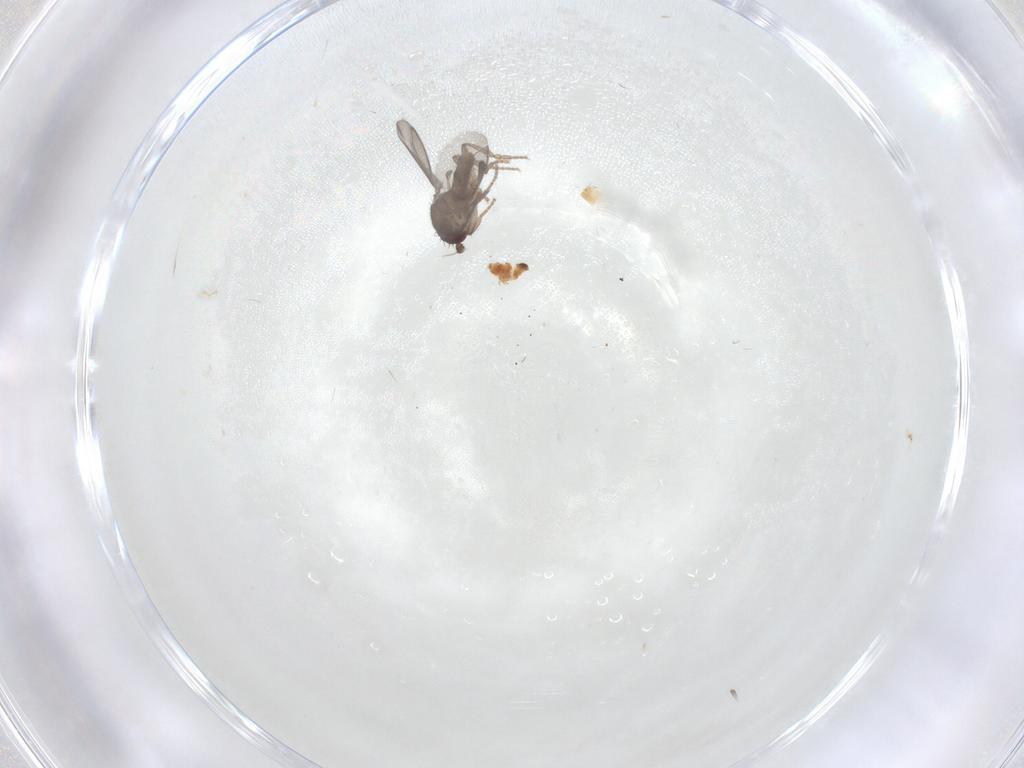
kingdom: Animalia
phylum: Arthropoda
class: Insecta
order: Diptera
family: Sphaeroceridae
